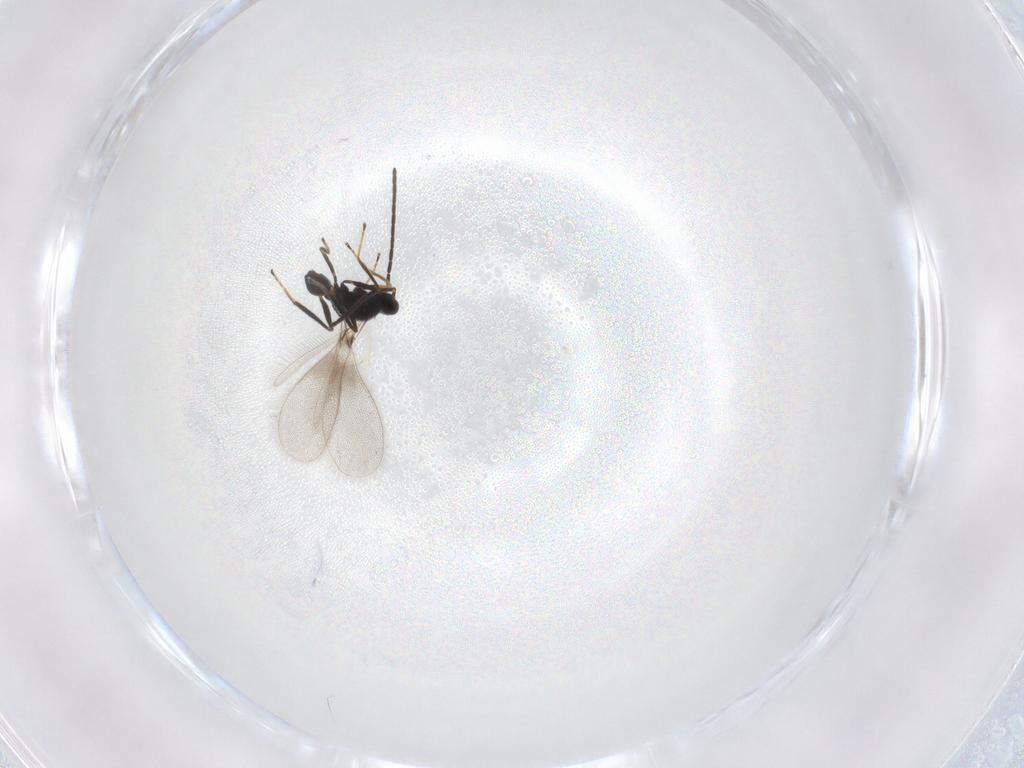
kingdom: Animalia
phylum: Arthropoda
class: Insecta
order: Hymenoptera
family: Mymaridae
